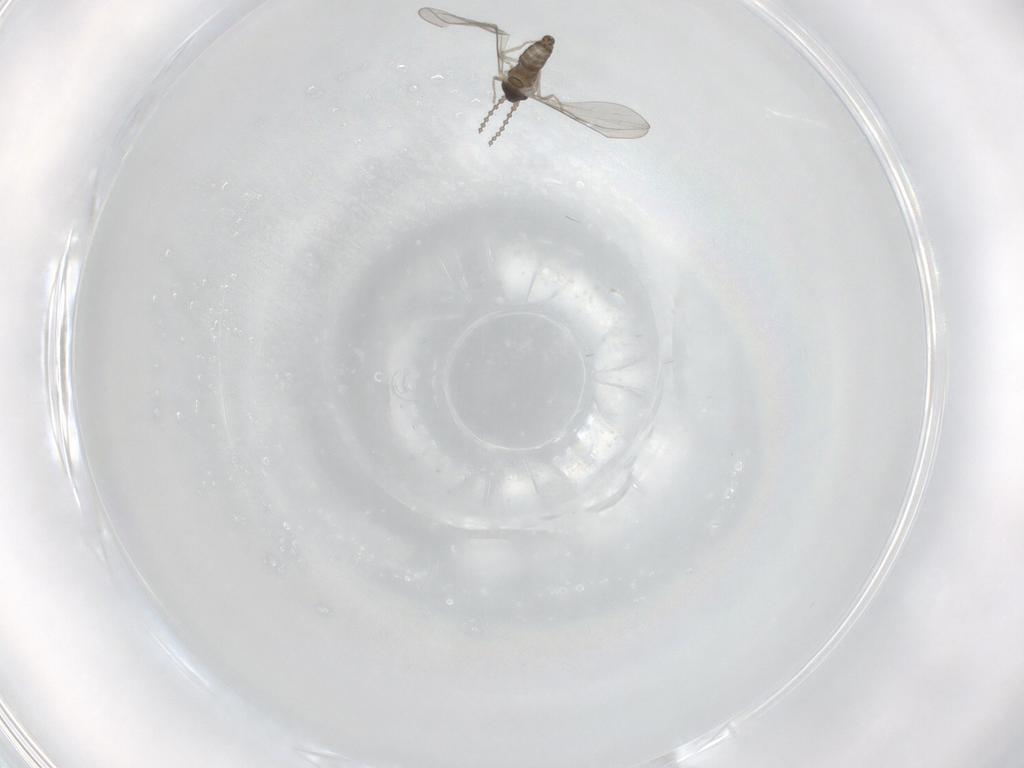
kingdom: Animalia
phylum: Arthropoda
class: Insecta
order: Diptera
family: Cecidomyiidae
